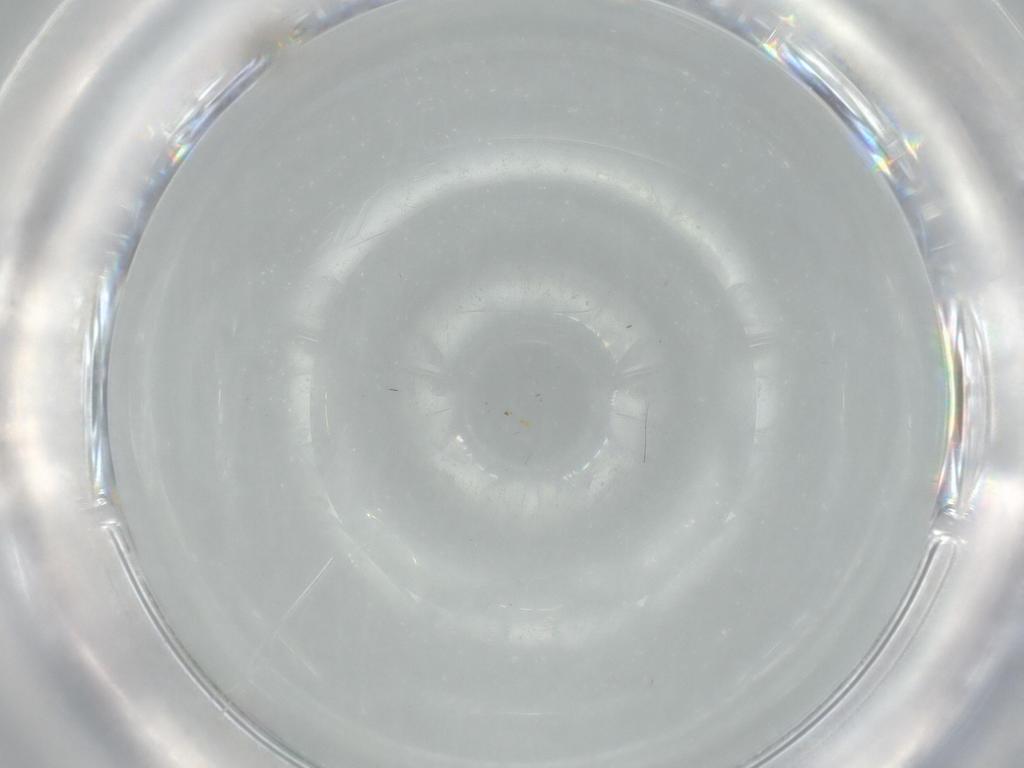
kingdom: Animalia
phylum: Arthropoda
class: Insecta
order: Diptera
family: Cecidomyiidae
